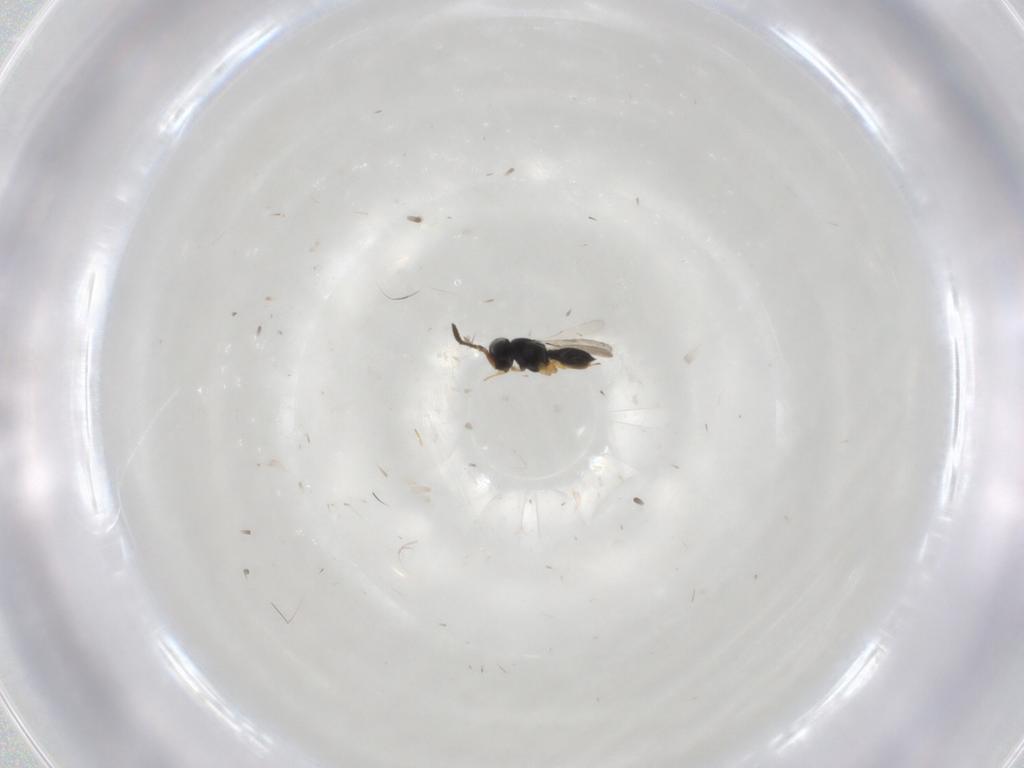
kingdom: Animalia
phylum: Arthropoda
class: Insecta
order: Hymenoptera
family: Scelionidae
